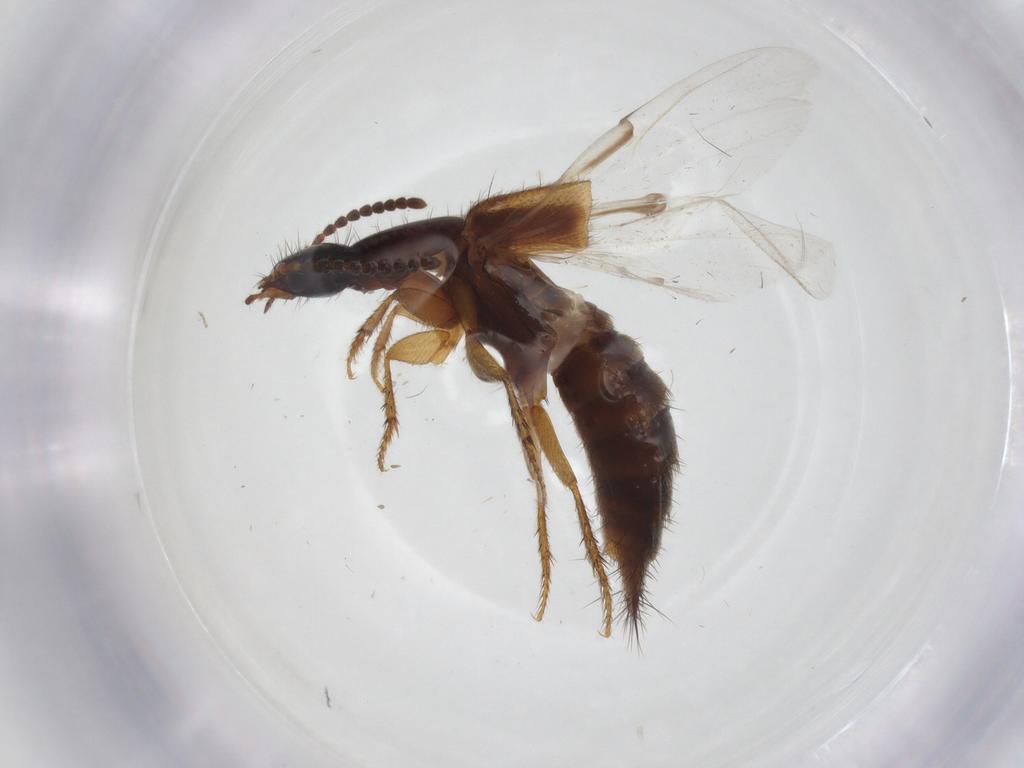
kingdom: Animalia
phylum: Arthropoda
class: Insecta
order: Coleoptera
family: Staphylinidae
